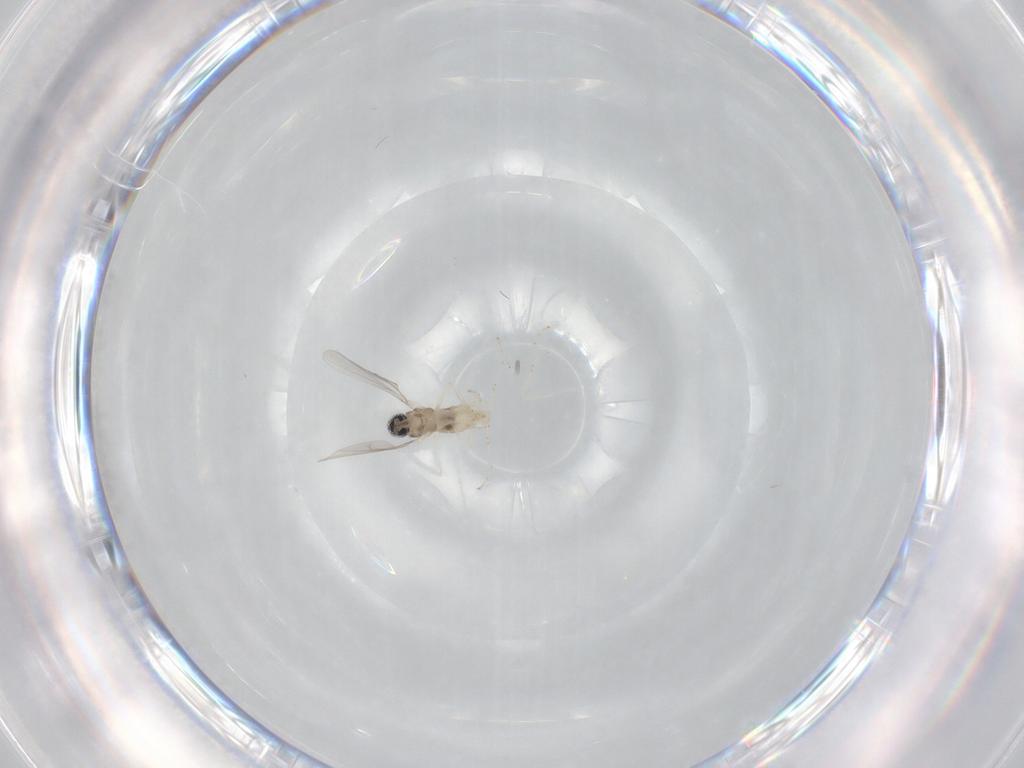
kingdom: Animalia
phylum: Arthropoda
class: Insecta
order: Diptera
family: Cecidomyiidae
